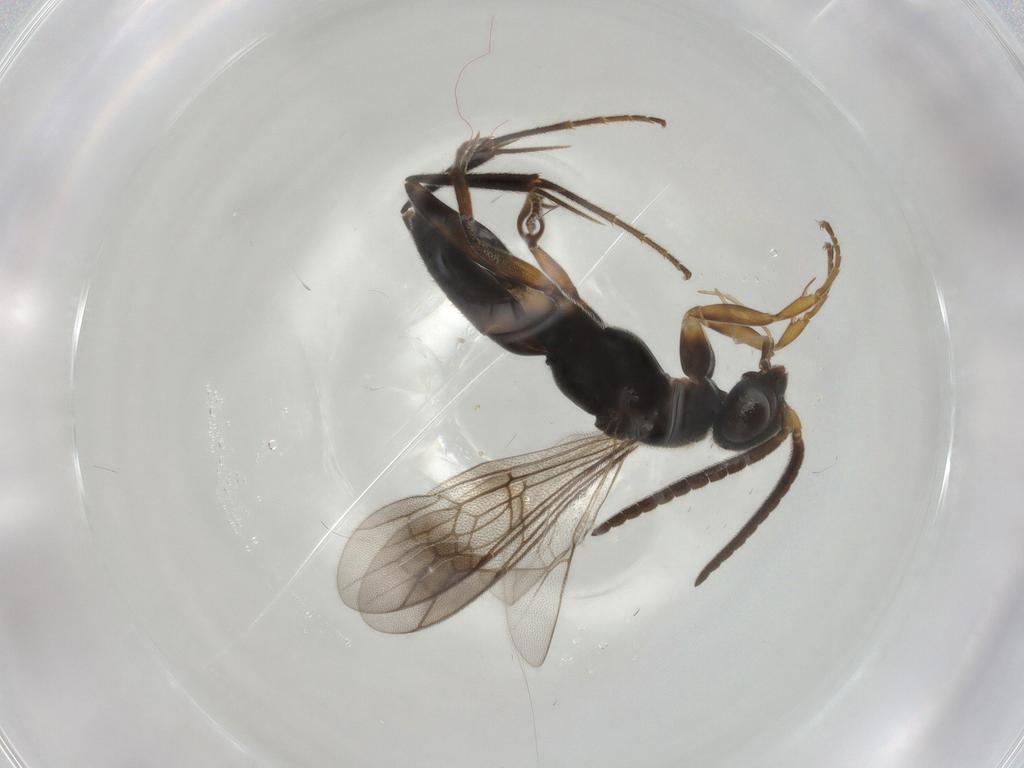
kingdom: Animalia
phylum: Arthropoda
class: Insecta
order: Hymenoptera
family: Pompilidae
